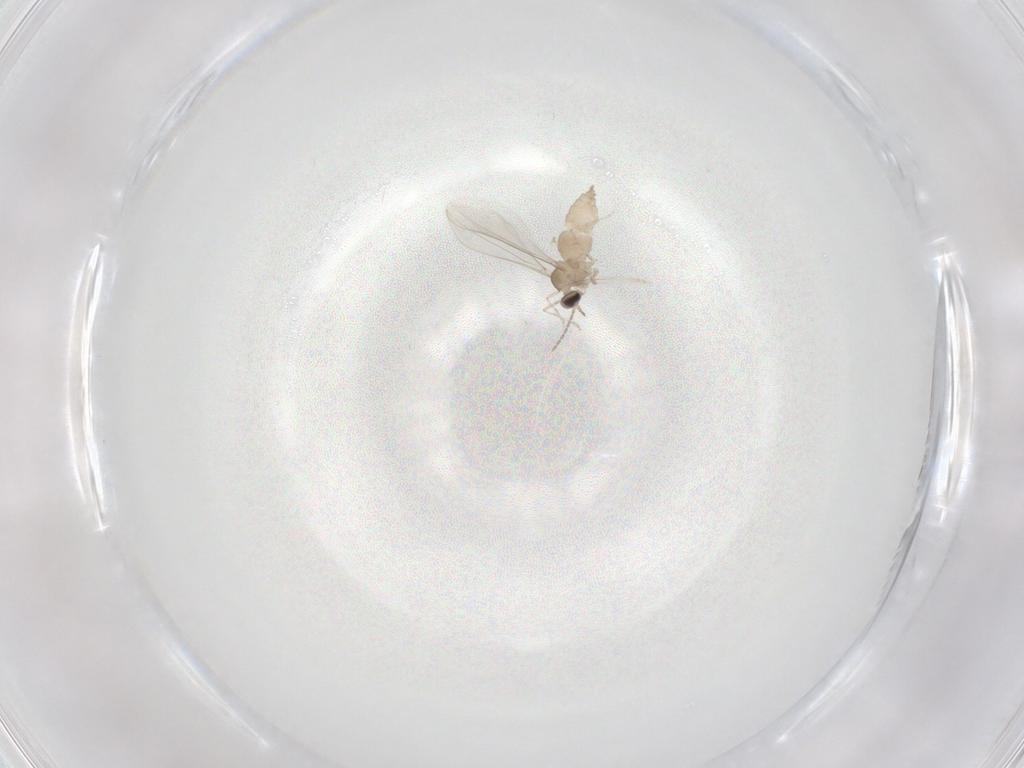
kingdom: Animalia
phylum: Arthropoda
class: Insecta
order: Diptera
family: Cecidomyiidae
